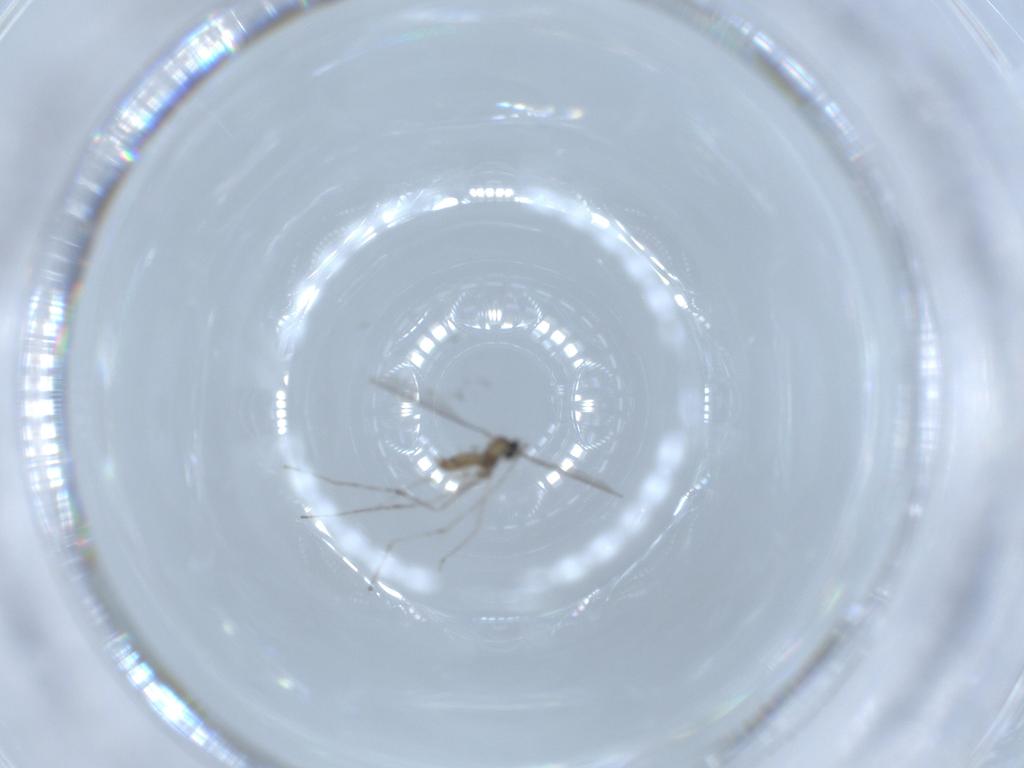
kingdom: Animalia
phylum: Arthropoda
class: Insecta
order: Diptera
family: Cecidomyiidae
